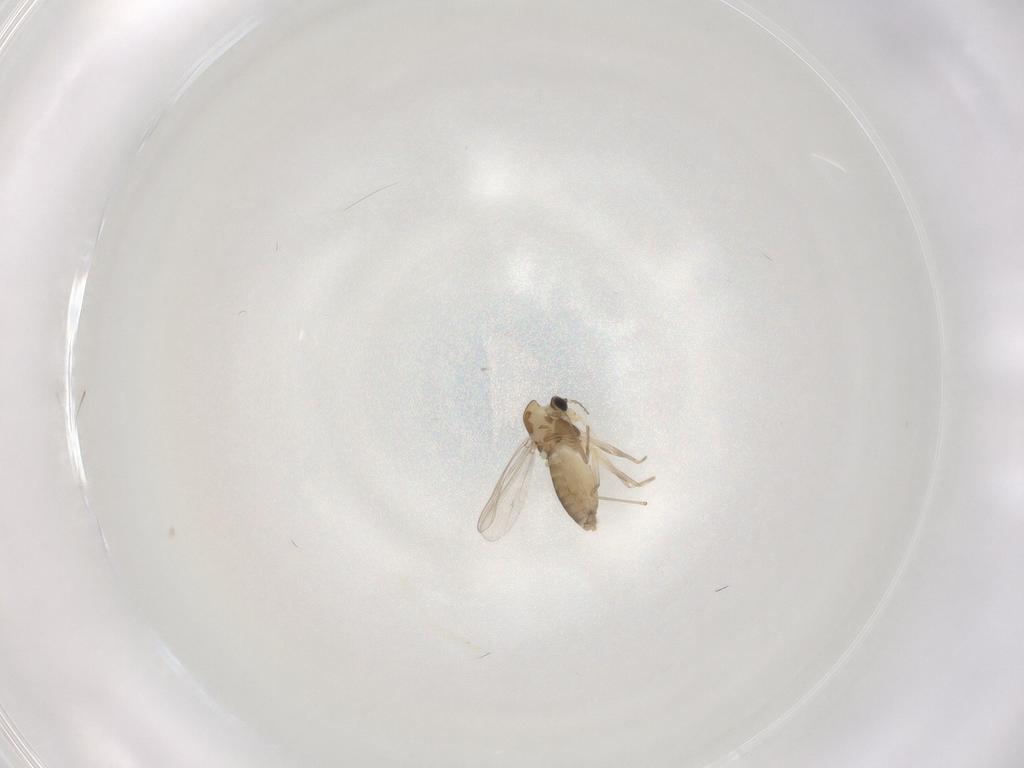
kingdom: Animalia
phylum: Arthropoda
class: Insecta
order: Diptera
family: Chironomidae
